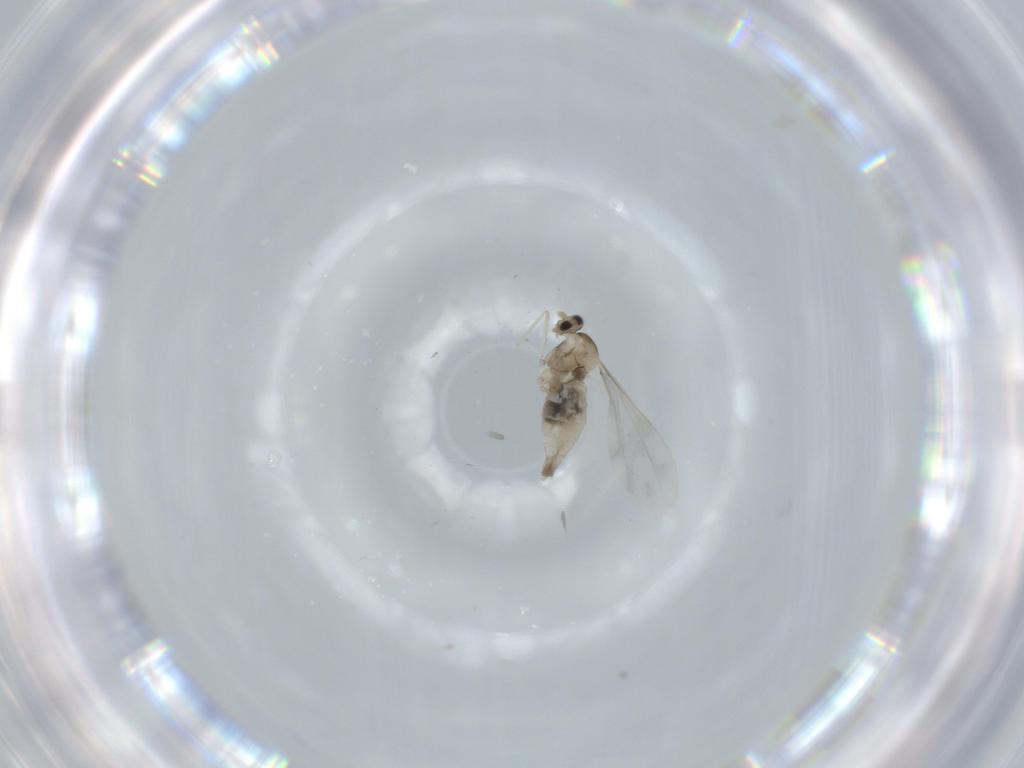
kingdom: Animalia
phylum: Arthropoda
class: Insecta
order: Diptera
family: Cecidomyiidae
